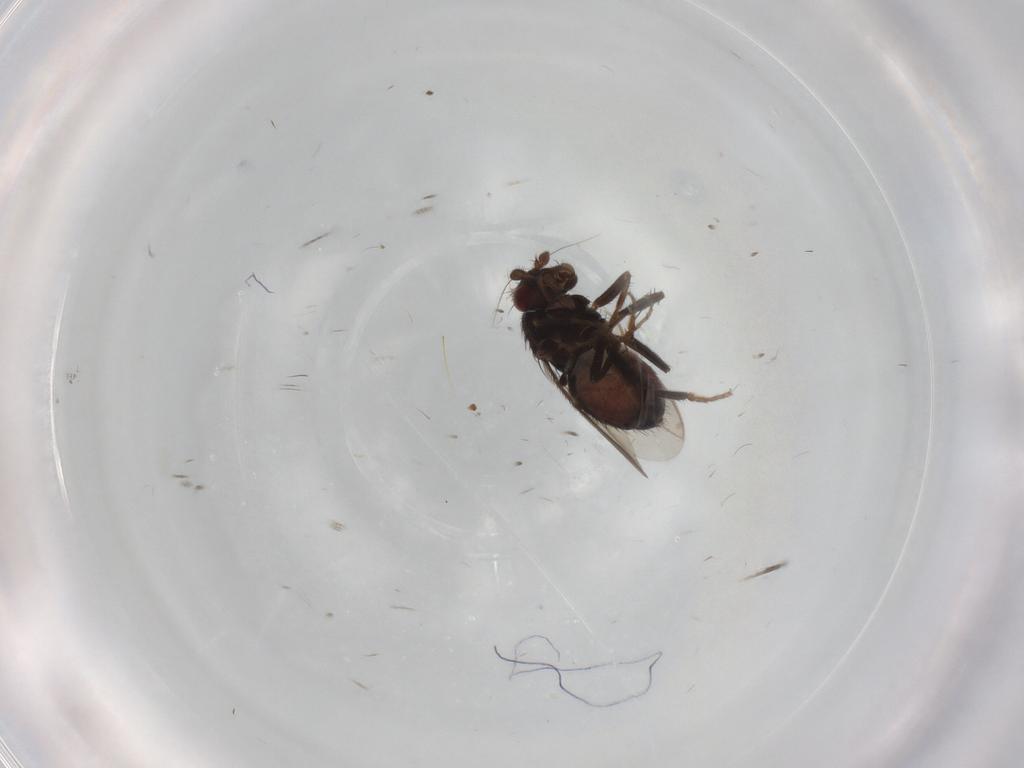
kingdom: Animalia
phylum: Arthropoda
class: Insecta
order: Diptera
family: Sphaeroceridae
